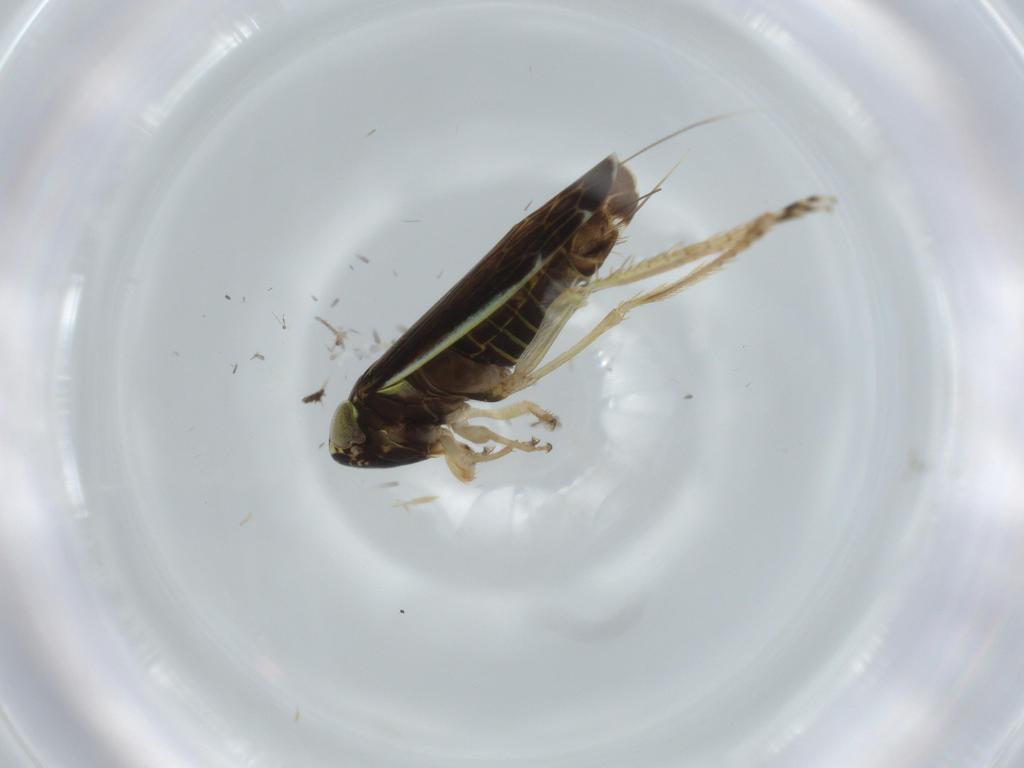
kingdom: Animalia
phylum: Arthropoda
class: Insecta
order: Hemiptera
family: Cicadellidae
